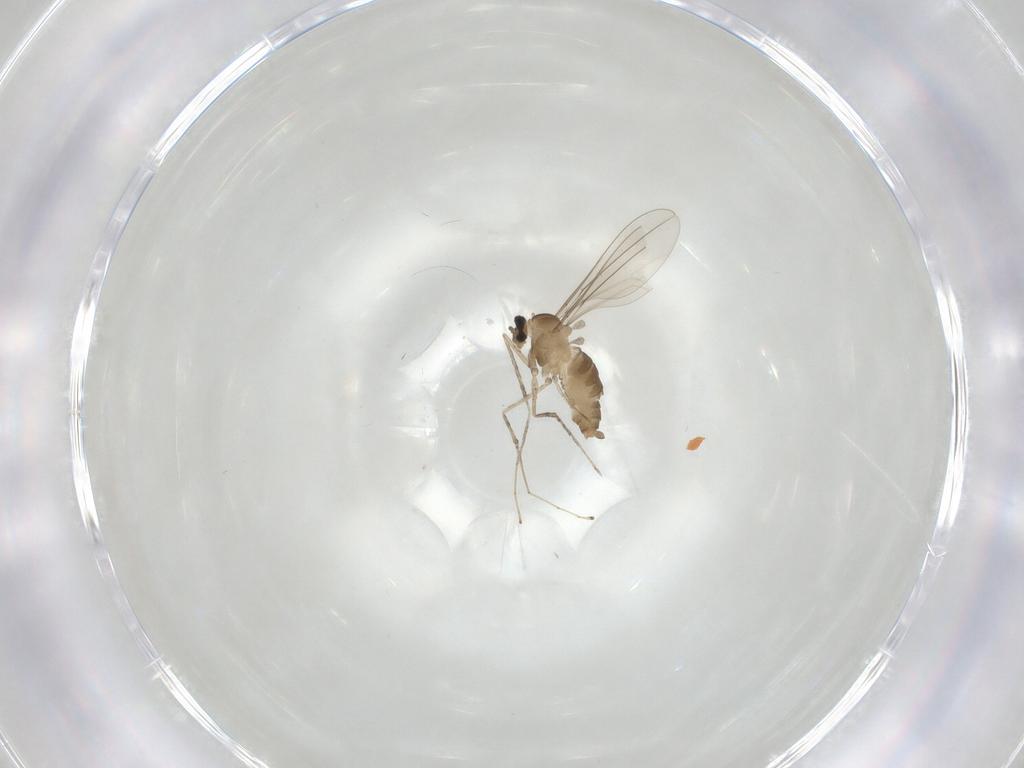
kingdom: Animalia
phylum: Arthropoda
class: Insecta
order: Diptera
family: Cecidomyiidae
